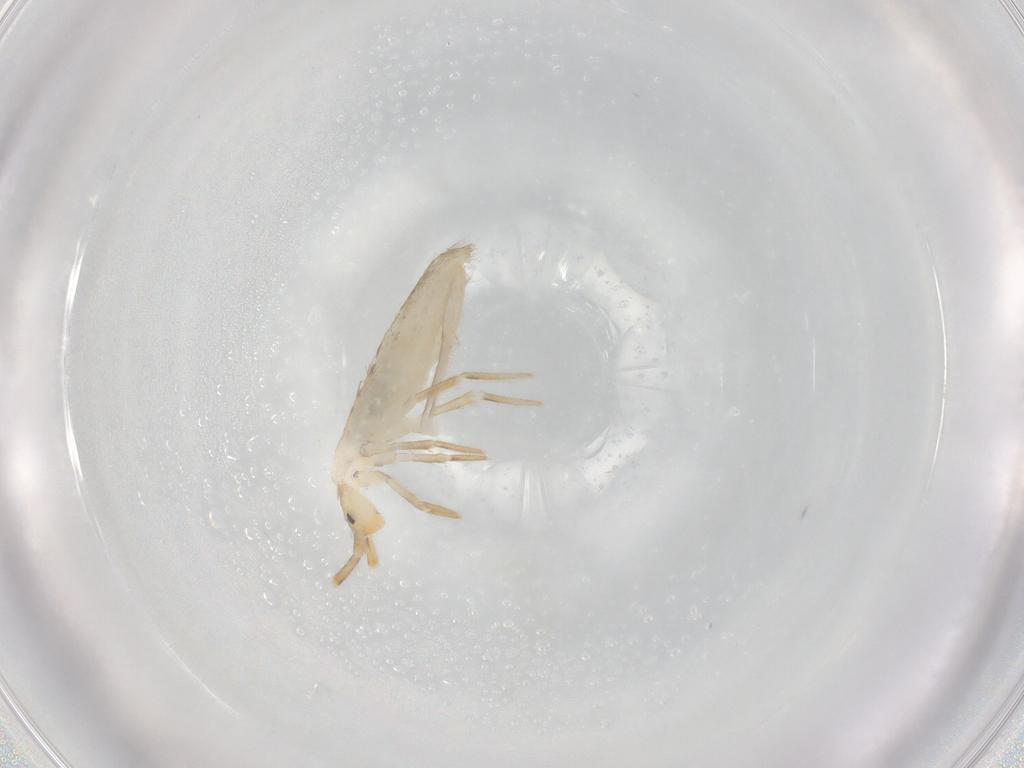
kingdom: Animalia
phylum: Arthropoda
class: Collembola
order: Entomobryomorpha
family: Entomobryidae
